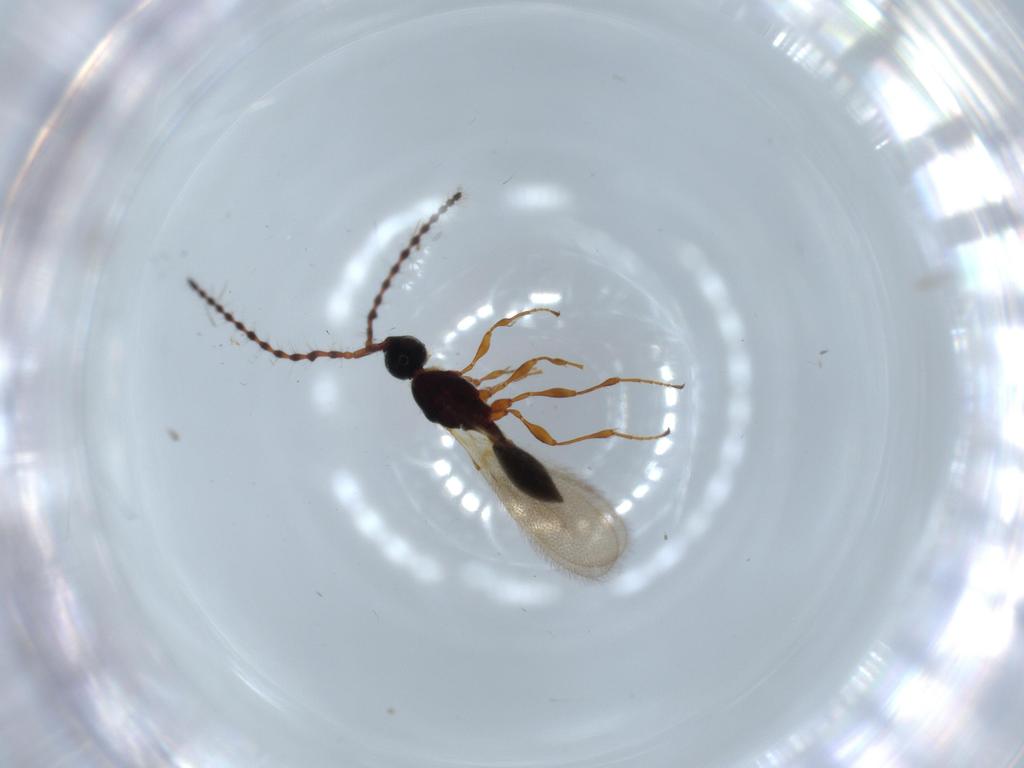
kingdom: Animalia
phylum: Arthropoda
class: Insecta
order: Hymenoptera
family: Diapriidae
